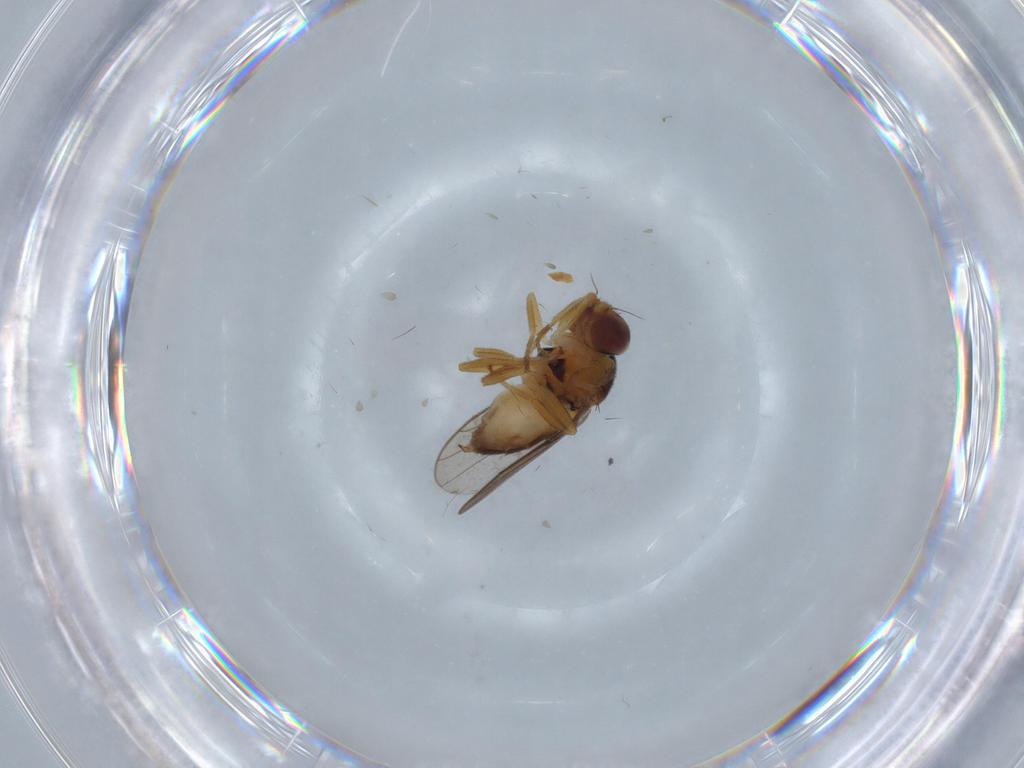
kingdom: Animalia
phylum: Arthropoda
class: Insecta
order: Diptera
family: Chloropidae
